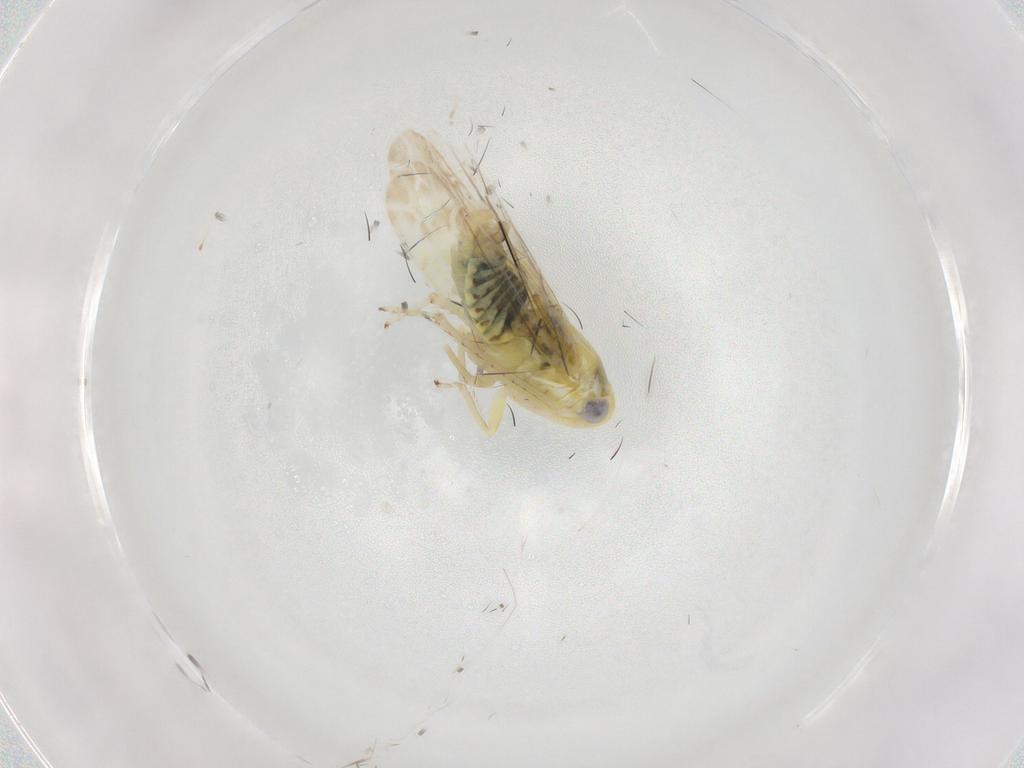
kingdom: Animalia
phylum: Arthropoda
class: Insecta
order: Hemiptera
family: Cicadellidae
